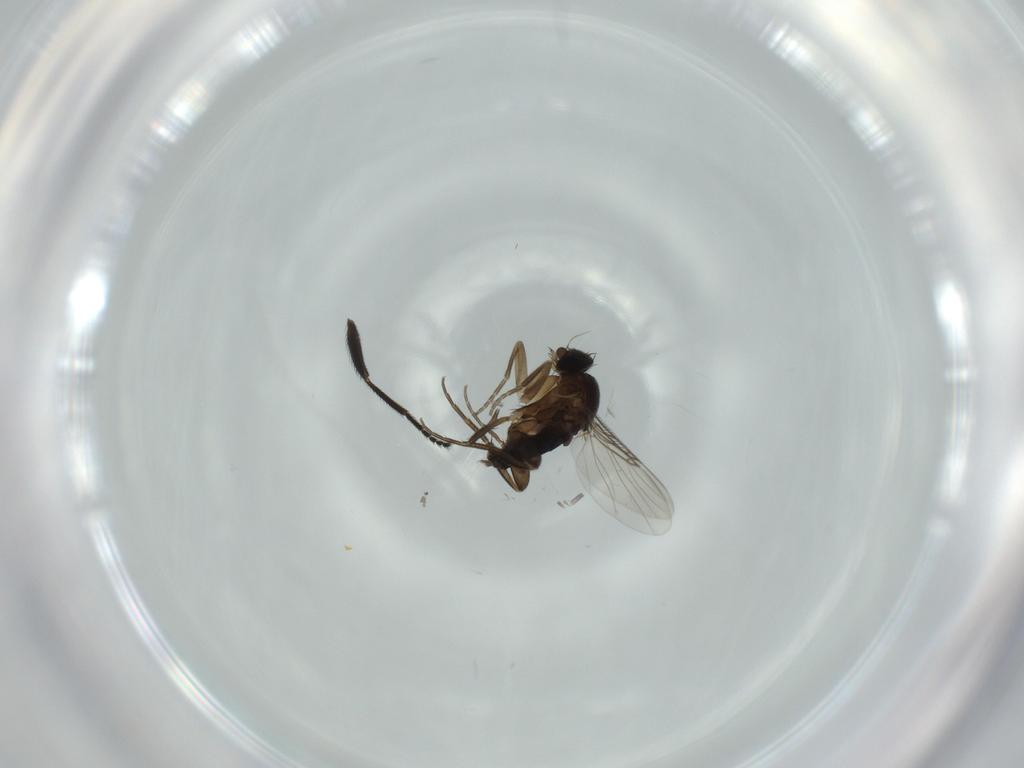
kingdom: Animalia
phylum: Arthropoda
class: Insecta
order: Diptera
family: Phoridae
